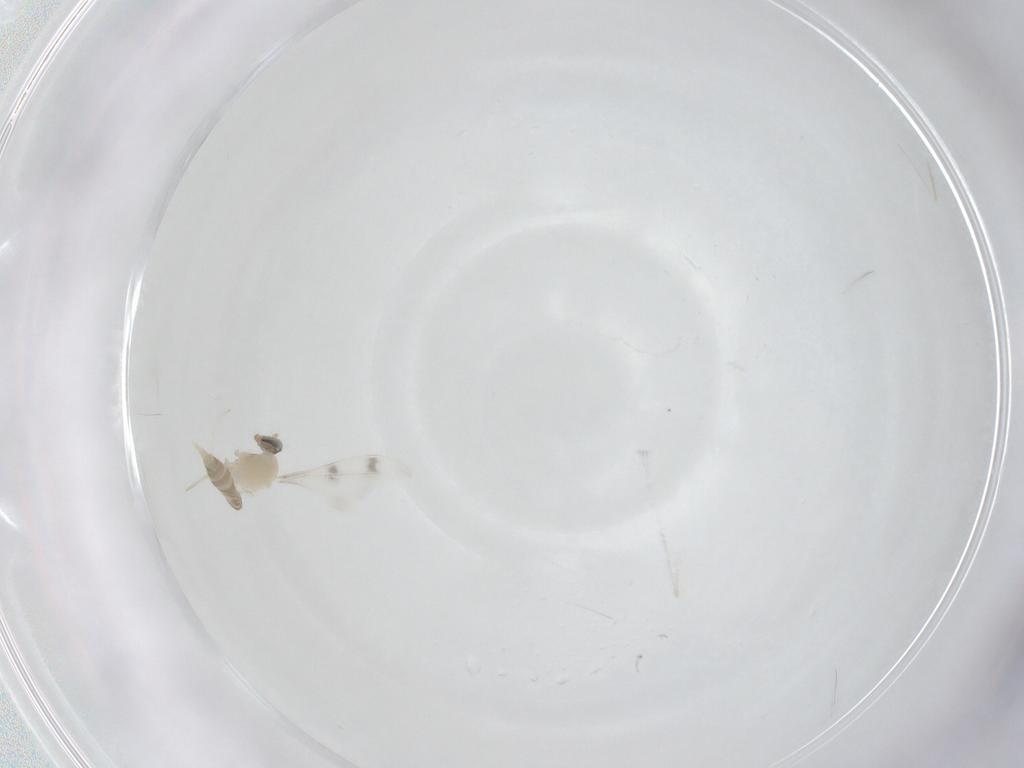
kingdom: Animalia
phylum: Arthropoda
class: Insecta
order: Diptera
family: Cecidomyiidae
